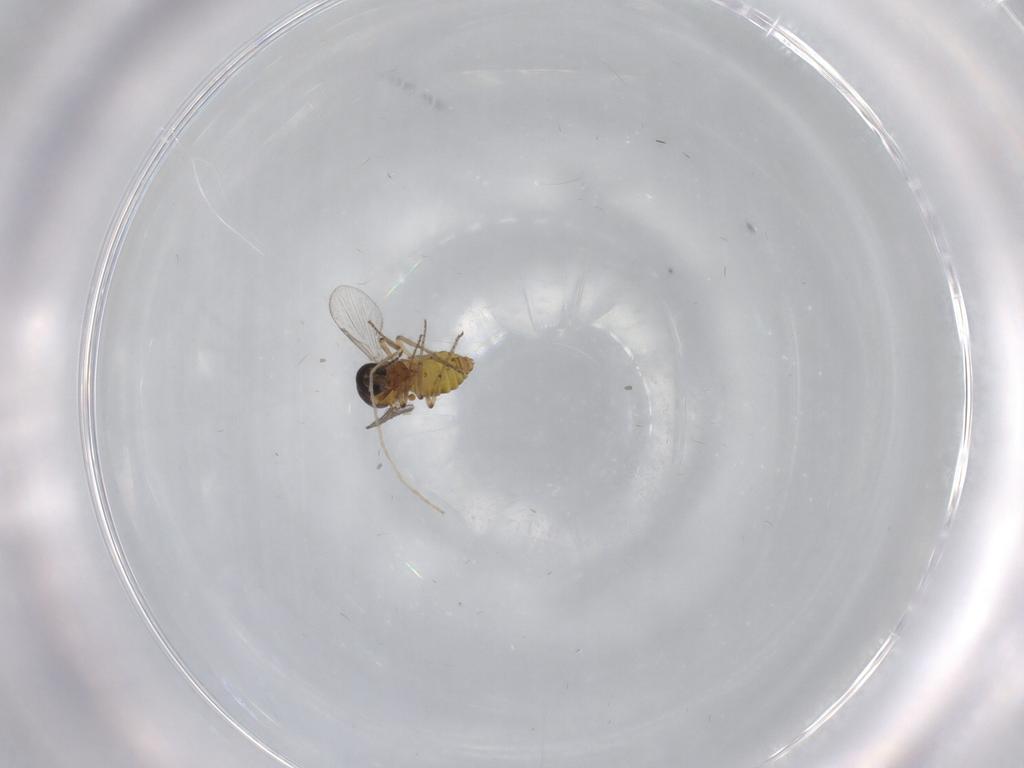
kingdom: Animalia
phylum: Arthropoda
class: Insecta
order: Diptera
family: Ceratopogonidae
